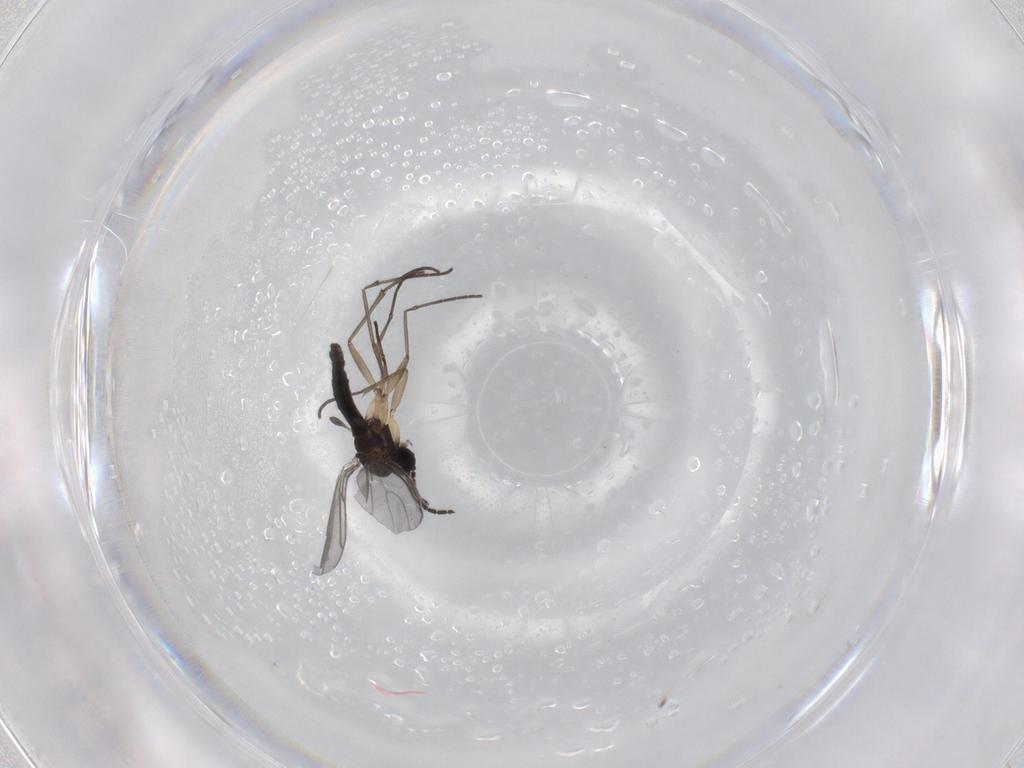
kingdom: Animalia
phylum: Arthropoda
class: Insecta
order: Diptera
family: Sciaridae
